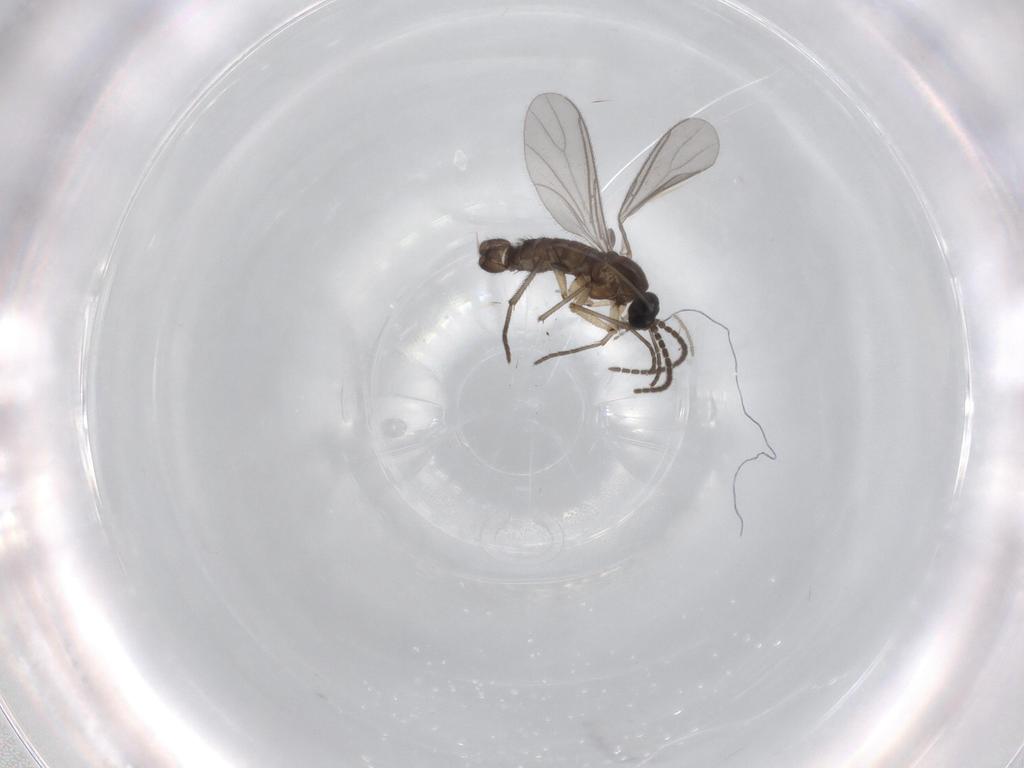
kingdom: Animalia
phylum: Arthropoda
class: Insecta
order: Diptera
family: Sciaridae
